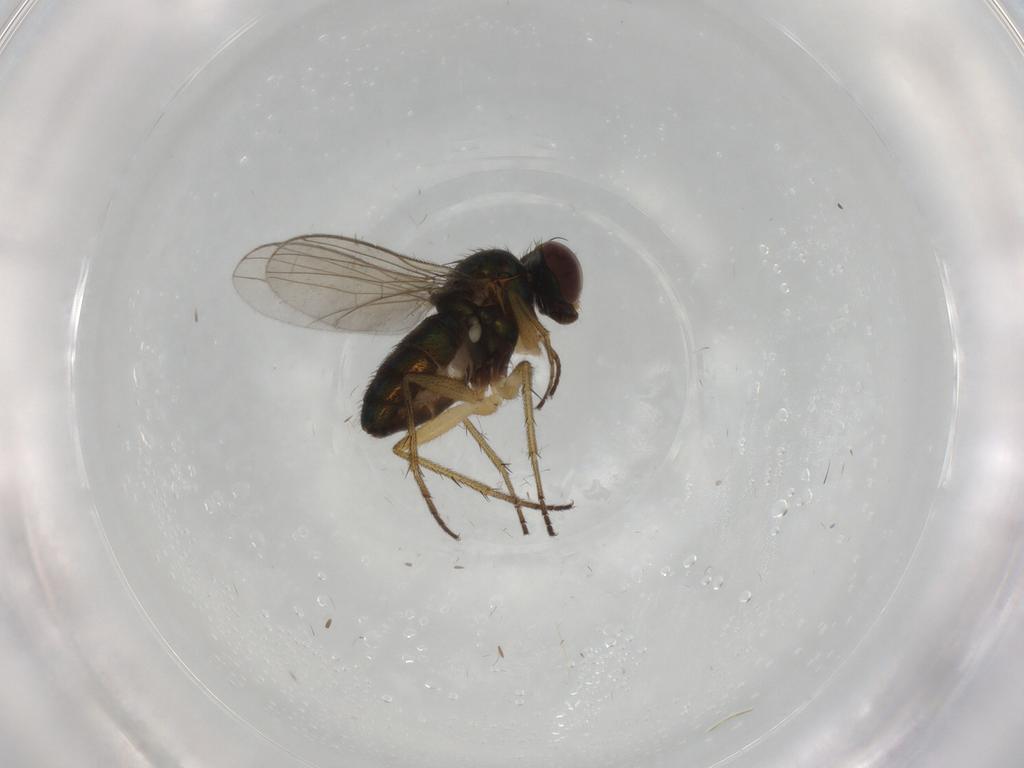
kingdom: Animalia
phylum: Arthropoda
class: Insecta
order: Diptera
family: Dolichopodidae
